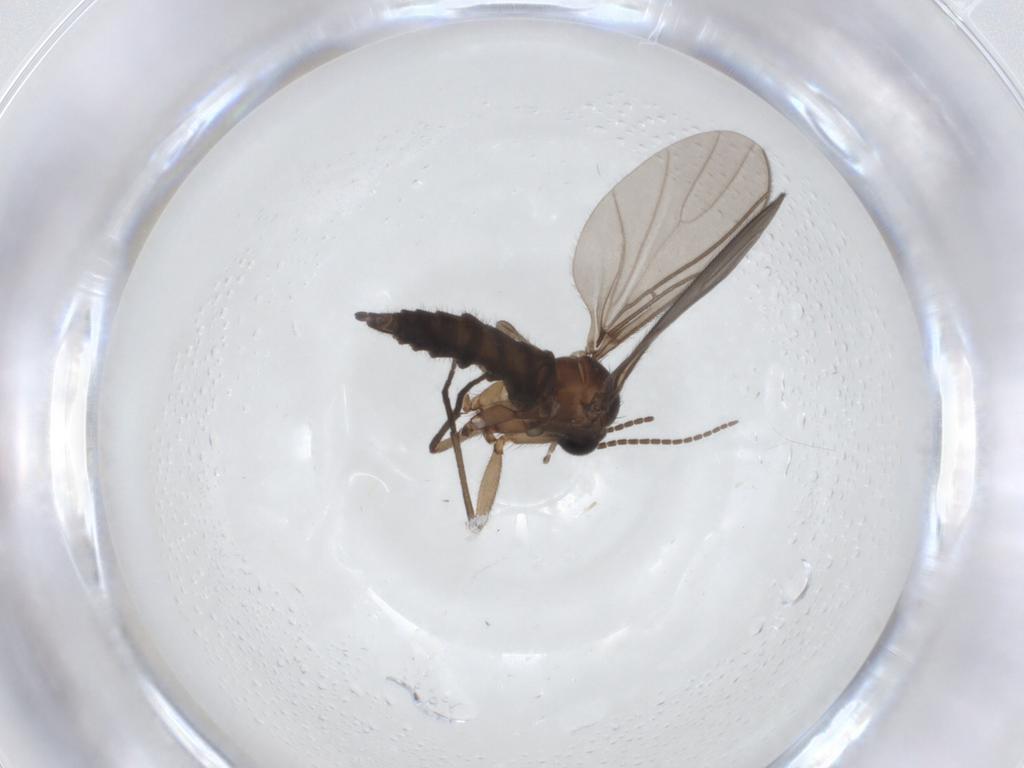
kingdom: Animalia
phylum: Arthropoda
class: Insecta
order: Diptera
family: Sciaridae
